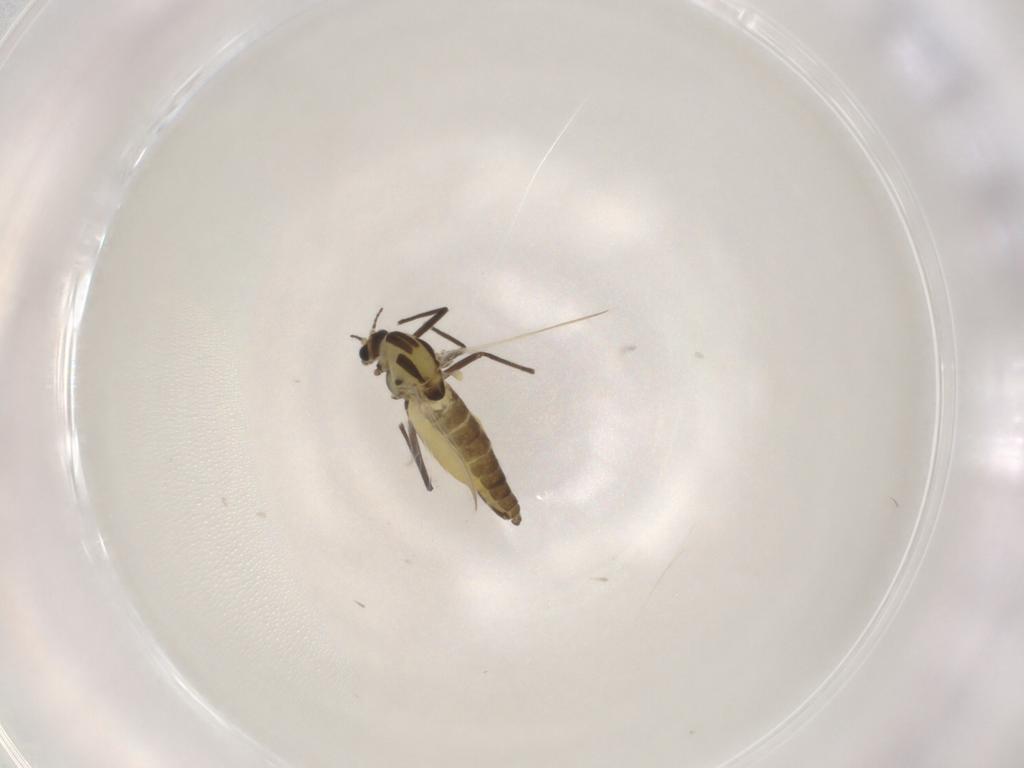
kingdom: Animalia
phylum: Arthropoda
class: Insecta
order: Diptera
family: Chironomidae
